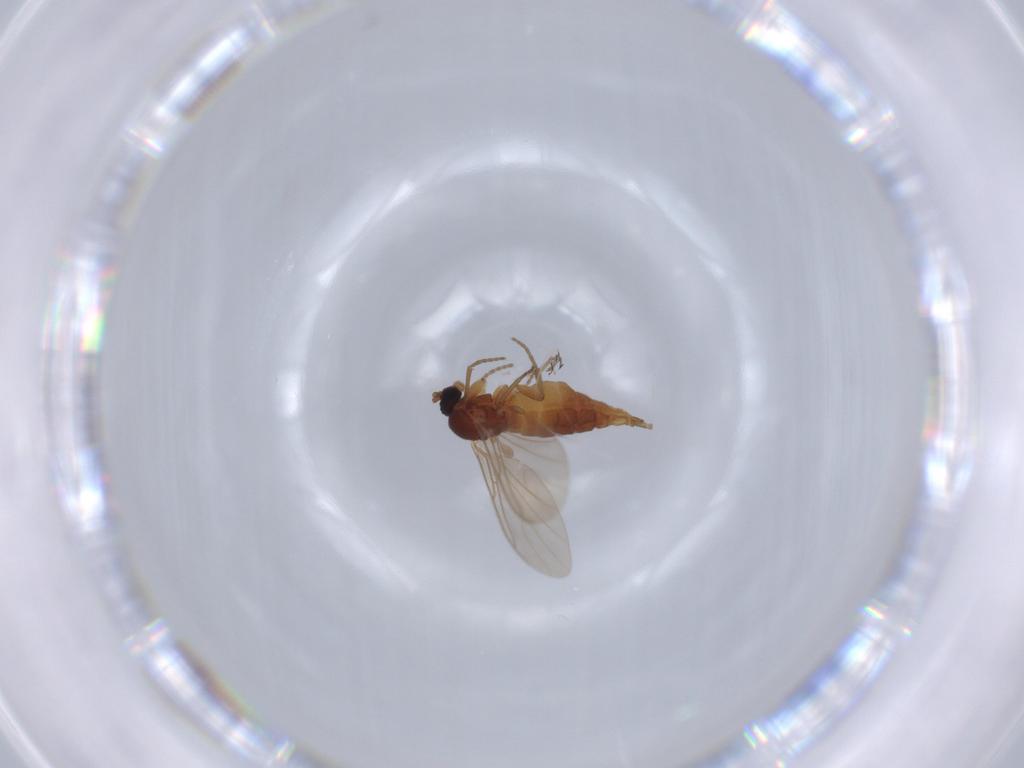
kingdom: Animalia
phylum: Arthropoda
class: Insecta
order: Diptera
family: Chironomidae
